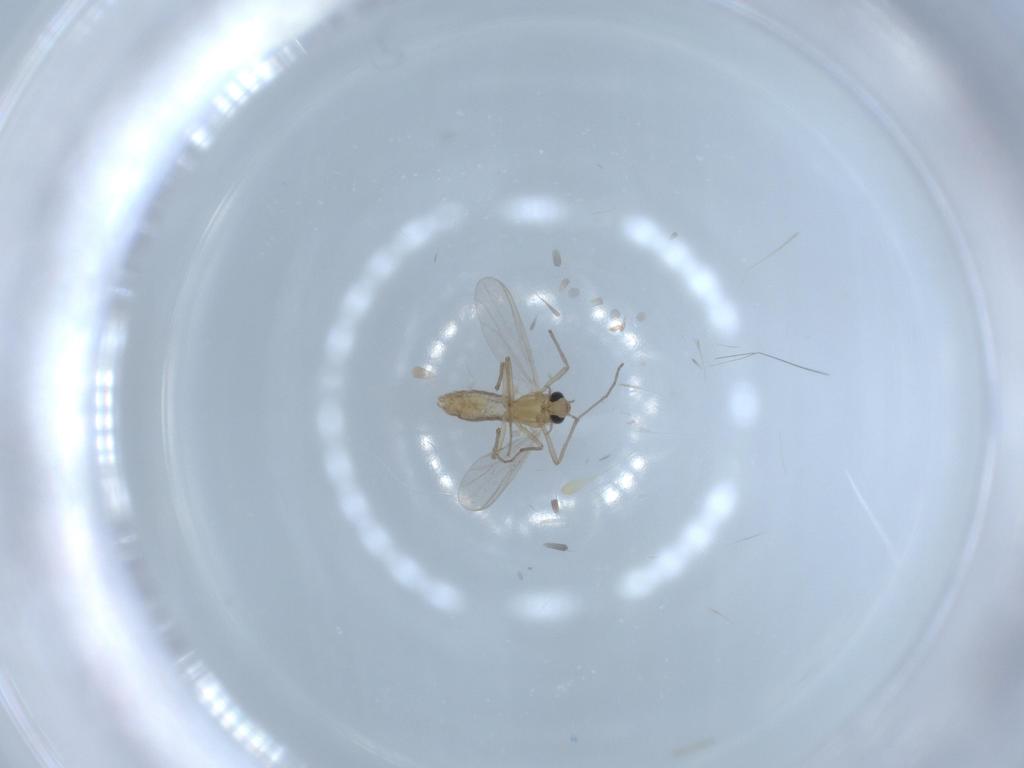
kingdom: Animalia
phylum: Arthropoda
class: Insecta
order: Diptera
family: Chironomidae
